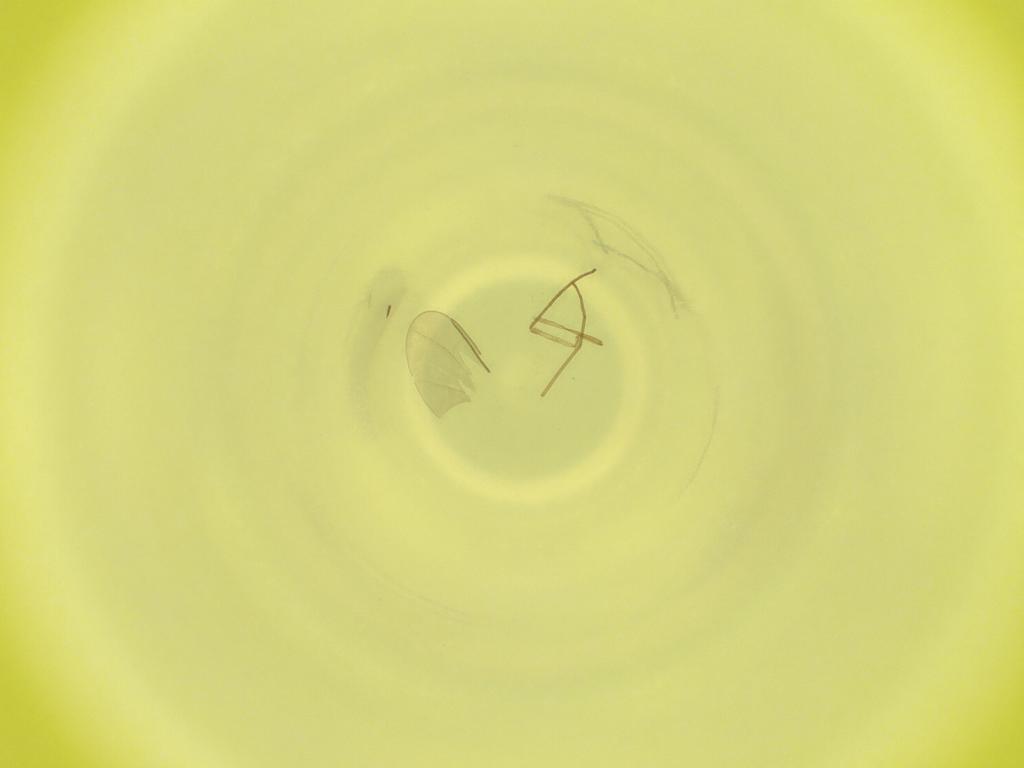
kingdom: Animalia
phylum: Arthropoda
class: Insecta
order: Diptera
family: Cecidomyiidae
